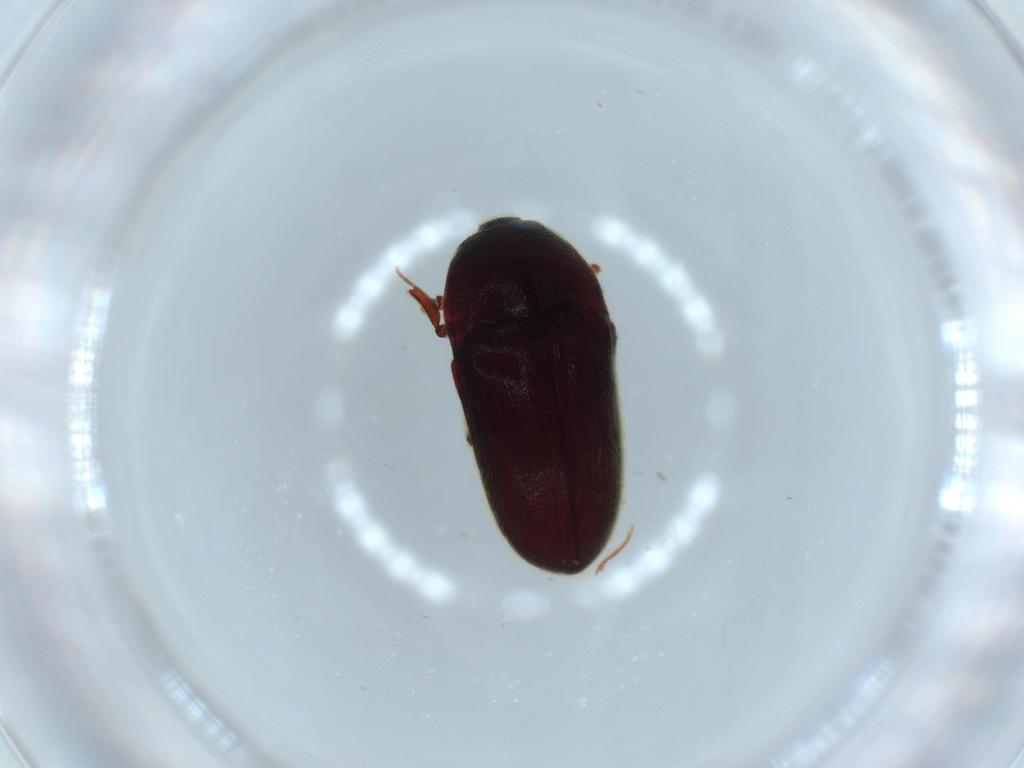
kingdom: Animalia
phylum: Arthropoda
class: Insecta
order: Coleoptera
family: Throscidae
